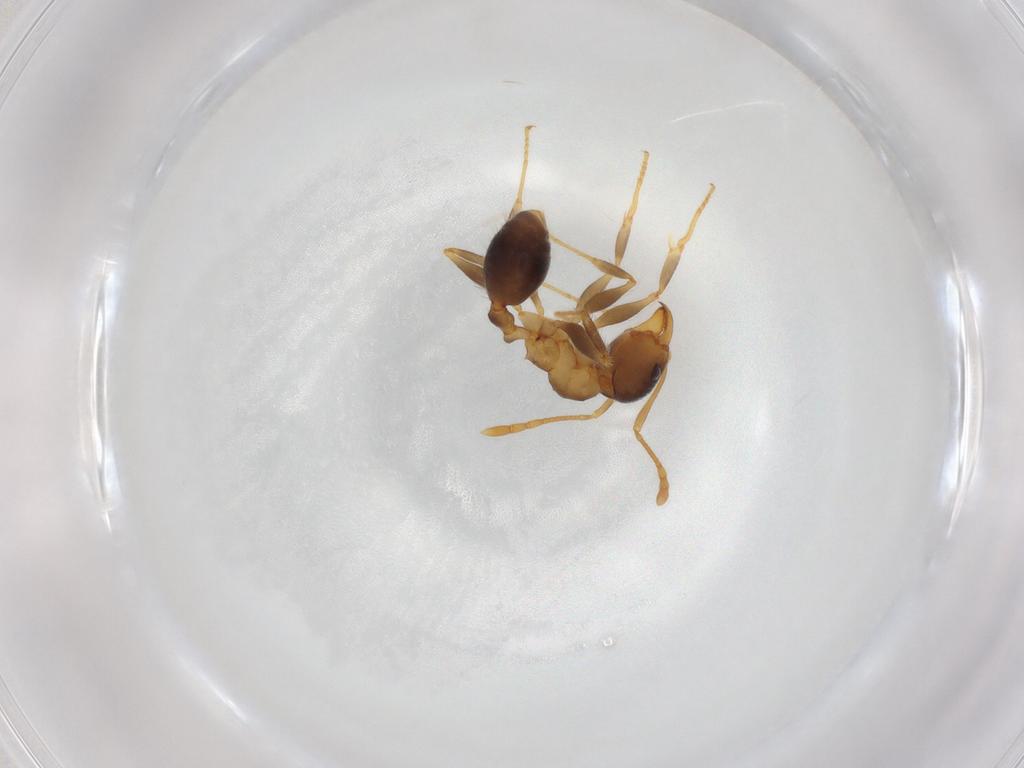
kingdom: Animalia
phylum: Arthropoda
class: Insecta
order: Hymenoptera
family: Formicidae
